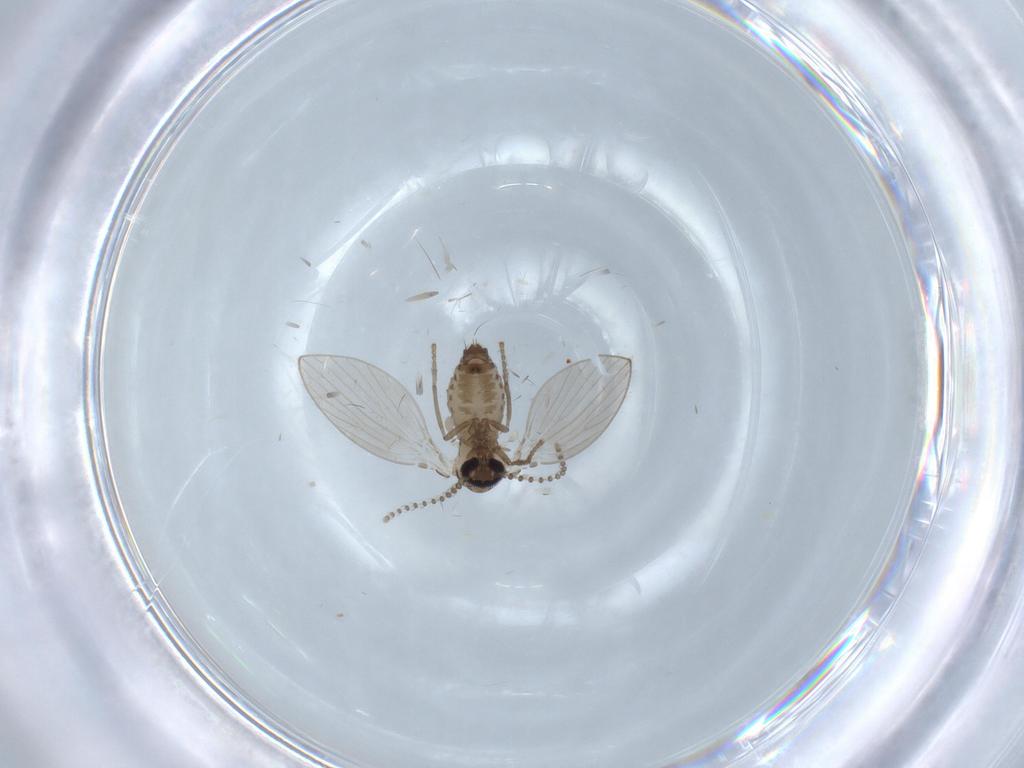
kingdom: Animalia
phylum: Arthropoda
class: Insecta
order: Diptera
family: Psychodidae
